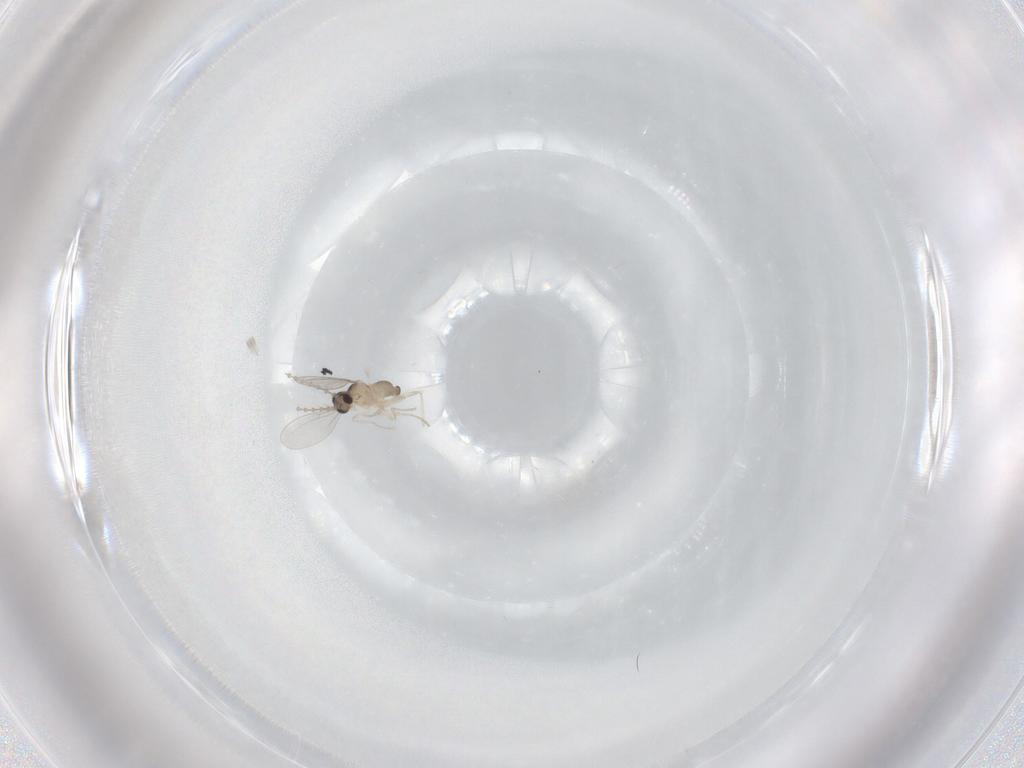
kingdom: Animalia
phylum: Arthropoda
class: Insecta
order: Diptera
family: Cecidomyiidae
